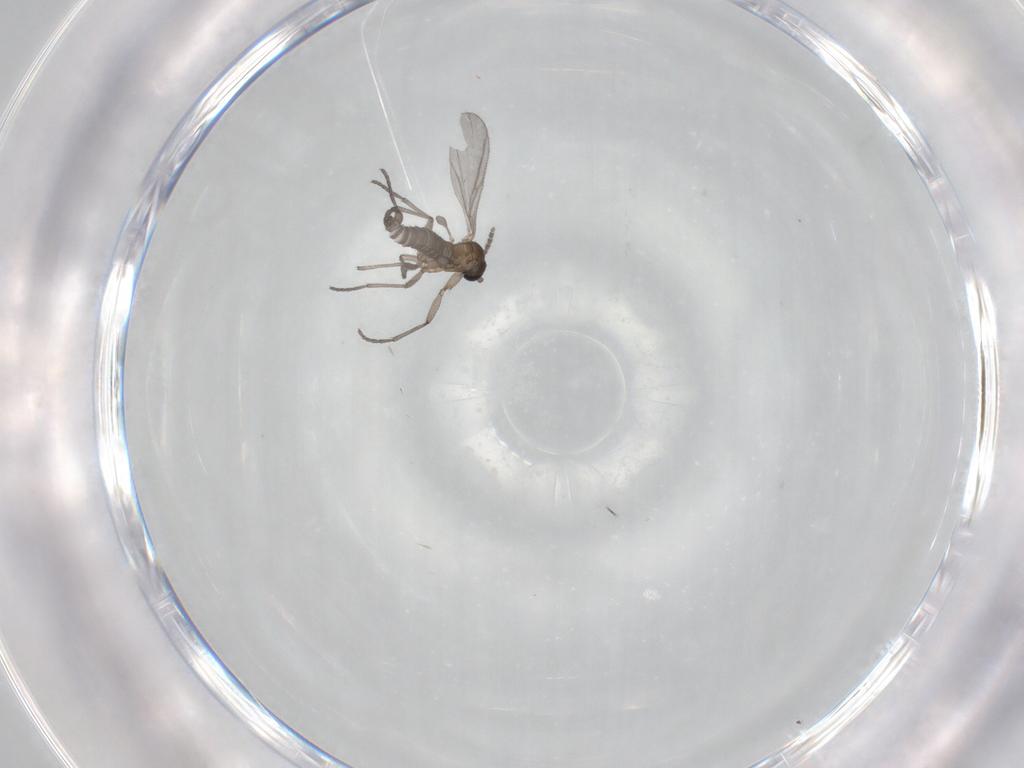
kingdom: Animalia
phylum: Arthropoda
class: Insecta
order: Diptera
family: Sciaridae
